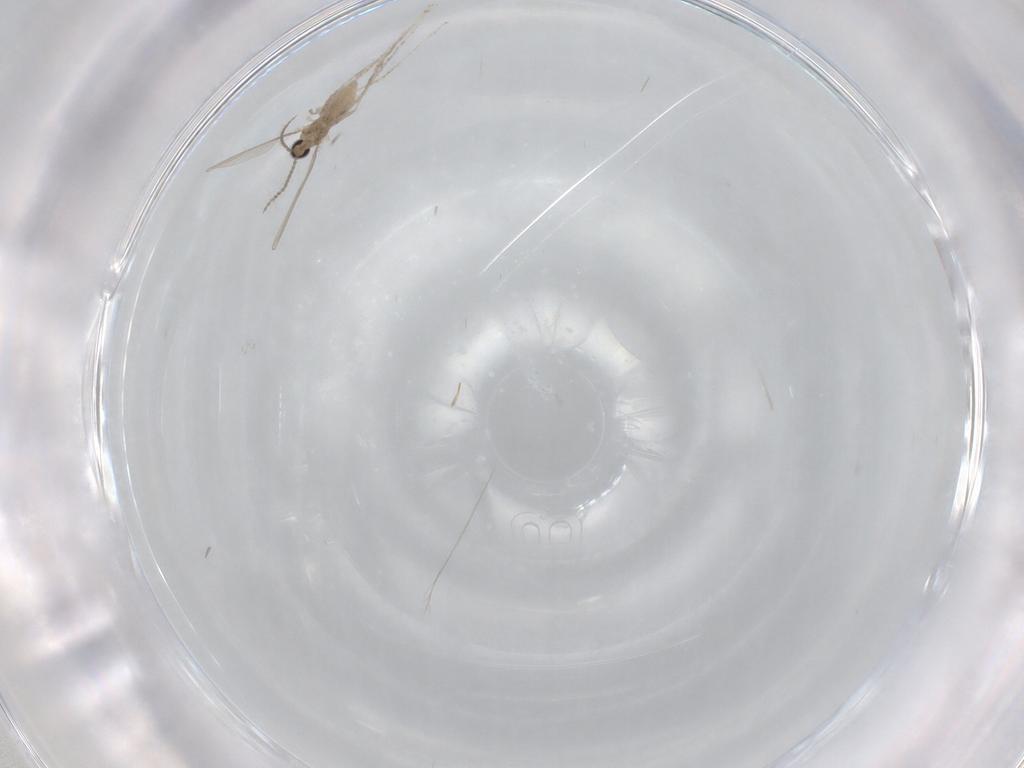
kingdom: Animalia
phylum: Arthropoda
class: Insecta
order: Diptera
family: Cecidomyiidae
